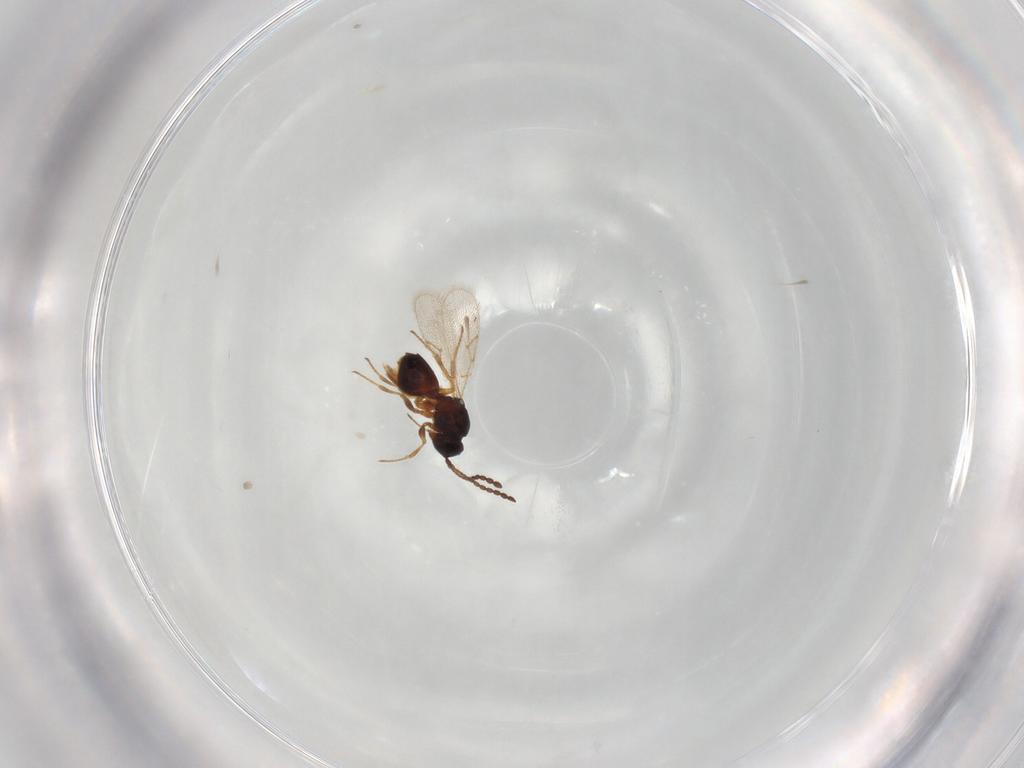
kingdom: Animalia
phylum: Arthropoda
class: Insecta
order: Hymenoptera
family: Figitidae
